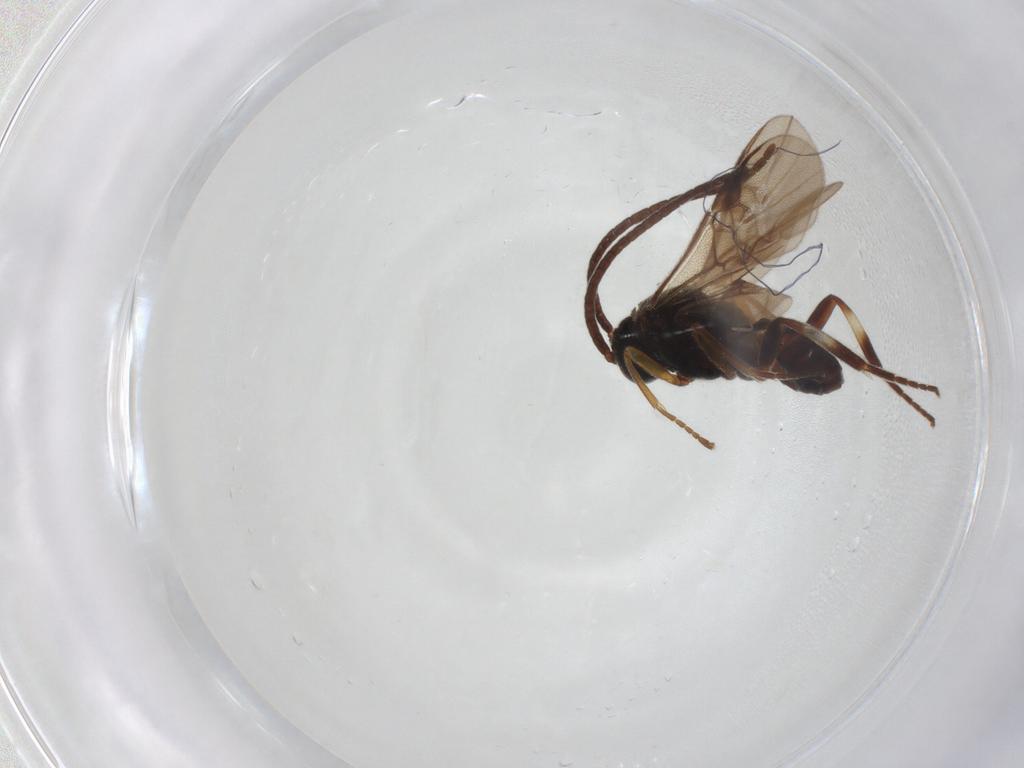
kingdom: Animalia
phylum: Arthropoda
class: Insecta
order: Hymenoptera
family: Braconidae
